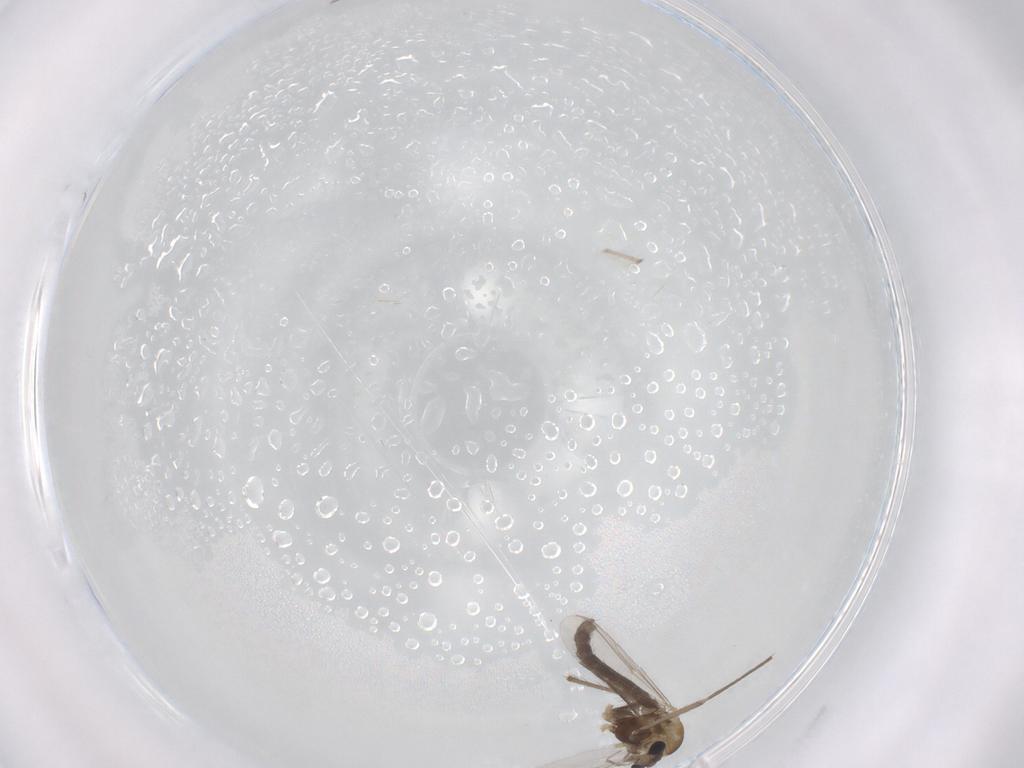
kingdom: Animalia
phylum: Arthropoda
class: Insecta
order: Diptera
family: Chironomidae
